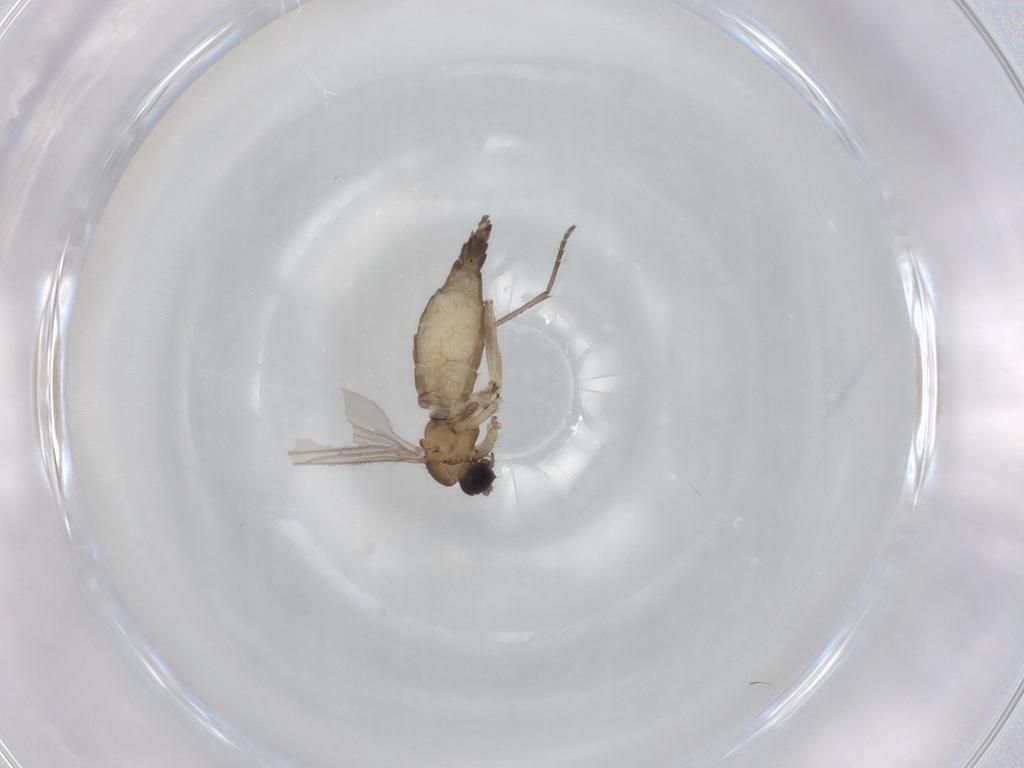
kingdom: Animalia
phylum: Arthropoda
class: Insecta
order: Diptera
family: Sciaridae
